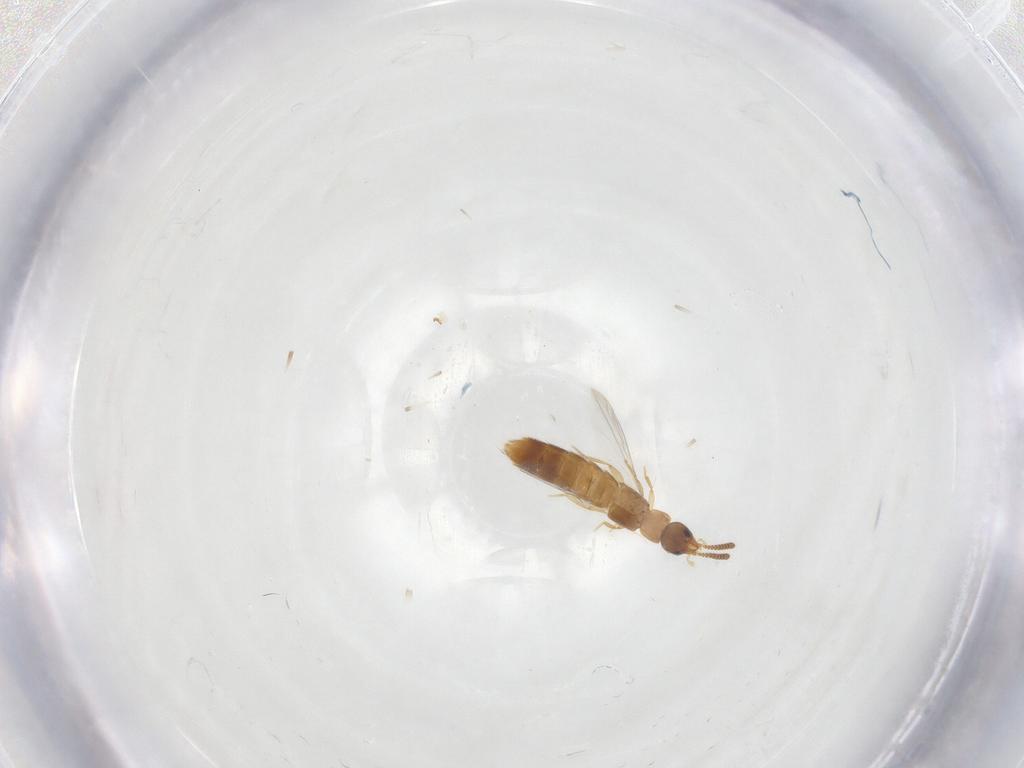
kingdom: Animalia
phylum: Arthropoda
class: Insecta
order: Coleoptera
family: Staphylinidae
